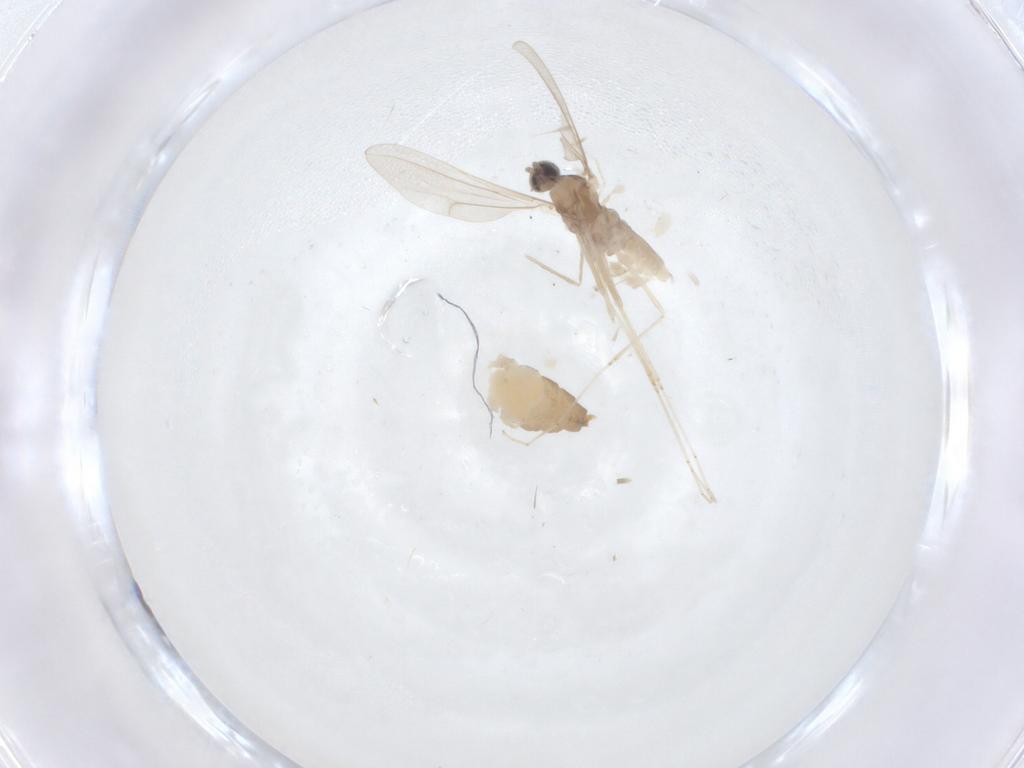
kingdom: Animalia
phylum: Arthropoda
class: Insecta
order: Diptera
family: Cecidomyiidae
